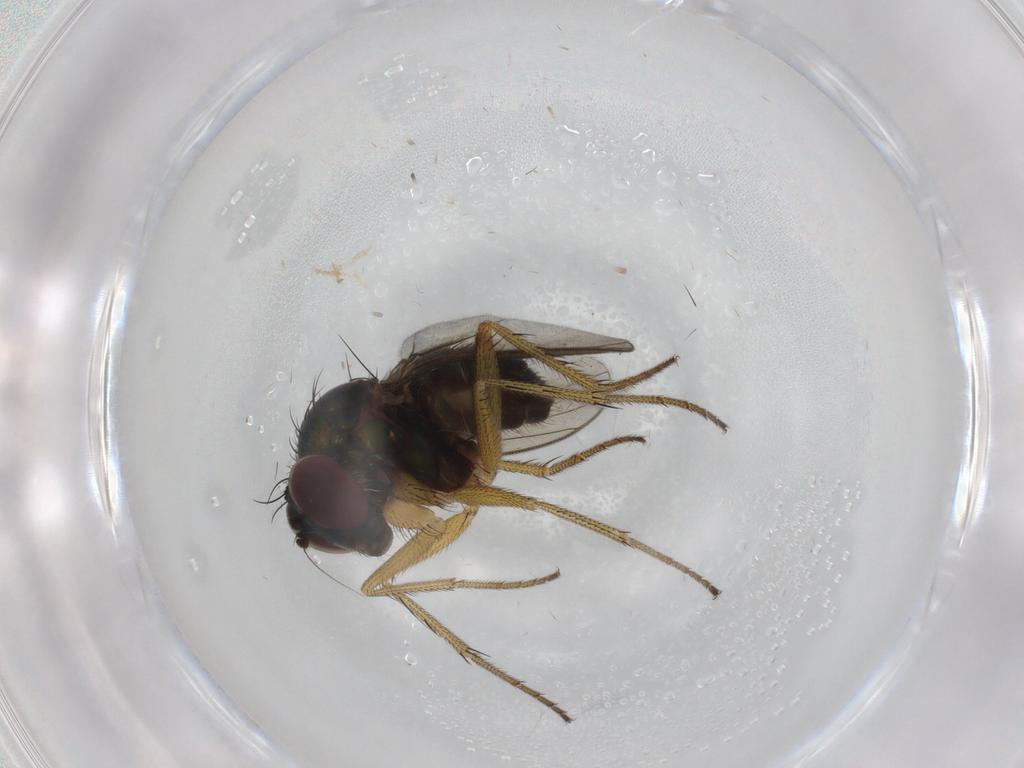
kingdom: Animalia
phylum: Arthropoda
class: Insecta
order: Diptera
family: Dolichopodidae
